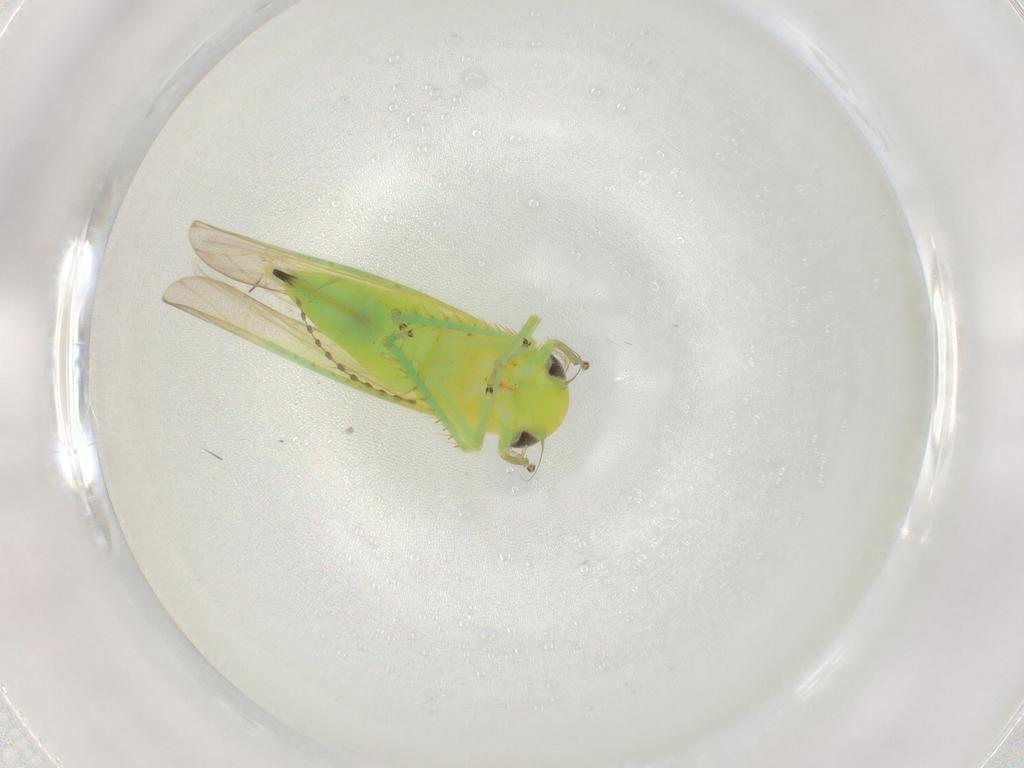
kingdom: Animalia
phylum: Arthropoda
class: Insecta
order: Hemiptera
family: Cicadellidae
